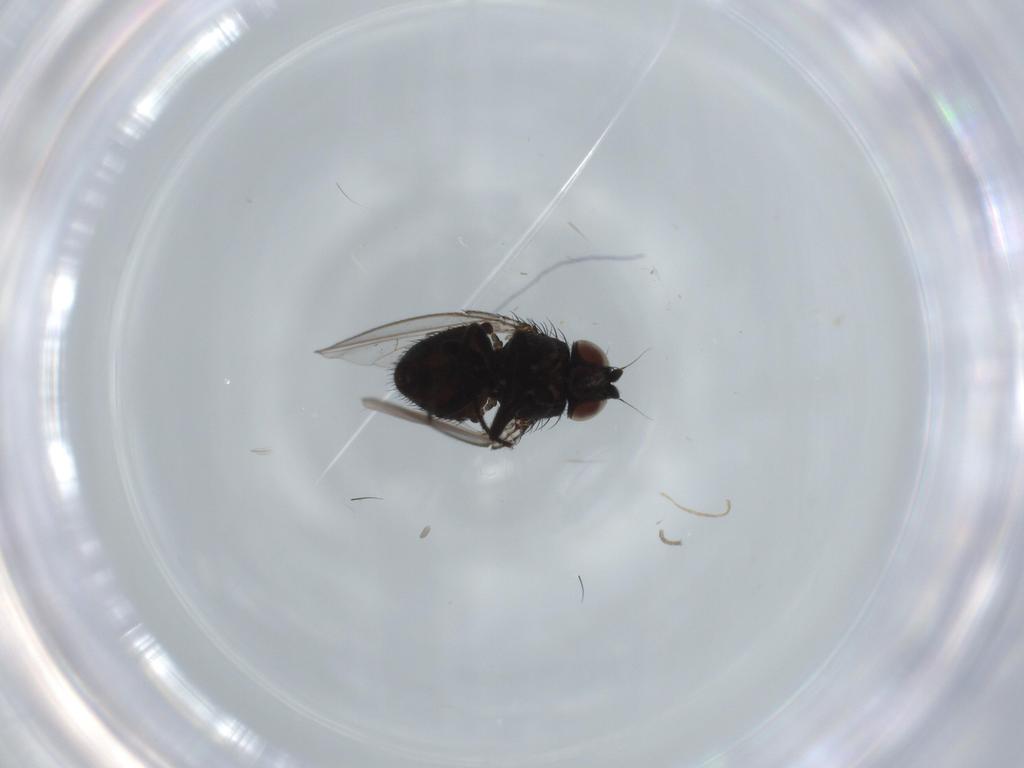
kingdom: Animalia
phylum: Arthropoda
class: Insecta
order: Diptera
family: Milichiidae
